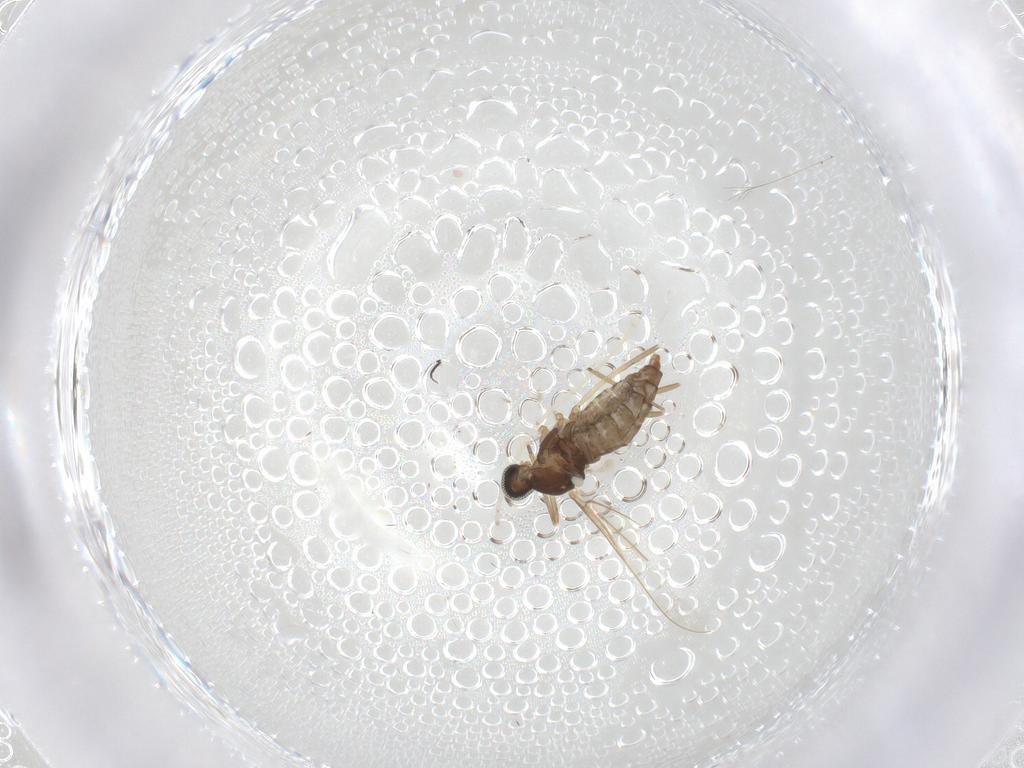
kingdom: Animalia
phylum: Arthropoda
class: Insecta
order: Diptera
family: Cecidomyiidae
